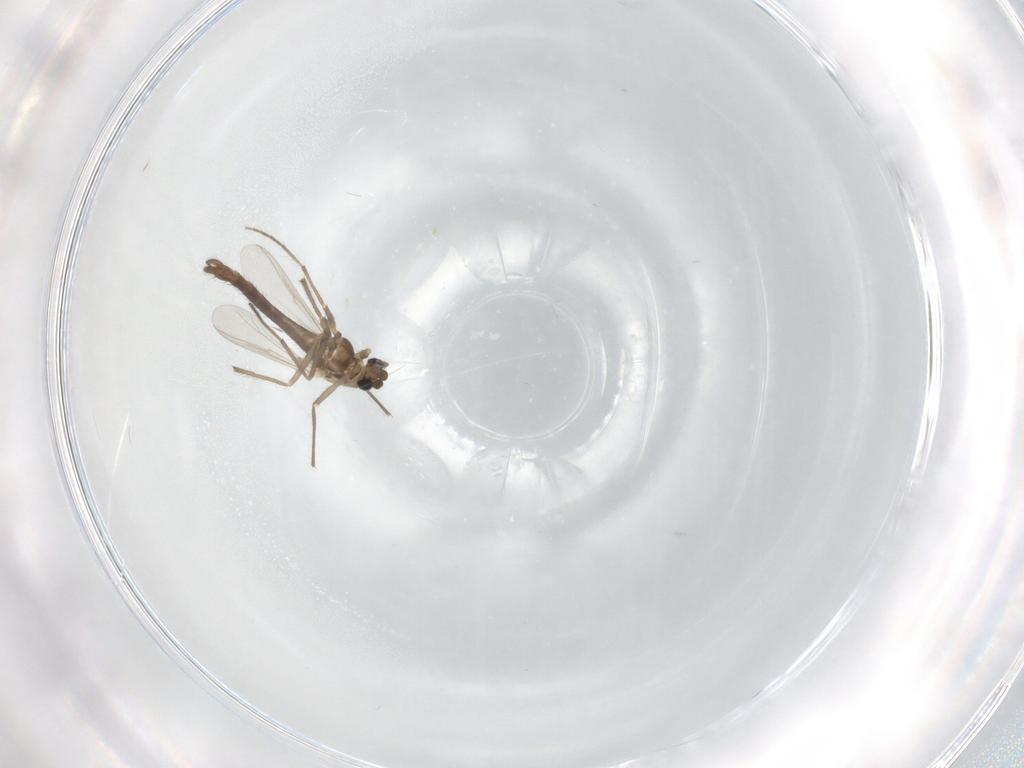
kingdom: Animalia
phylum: Arthropoda
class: Insecta
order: Diptera
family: Chironomidae
